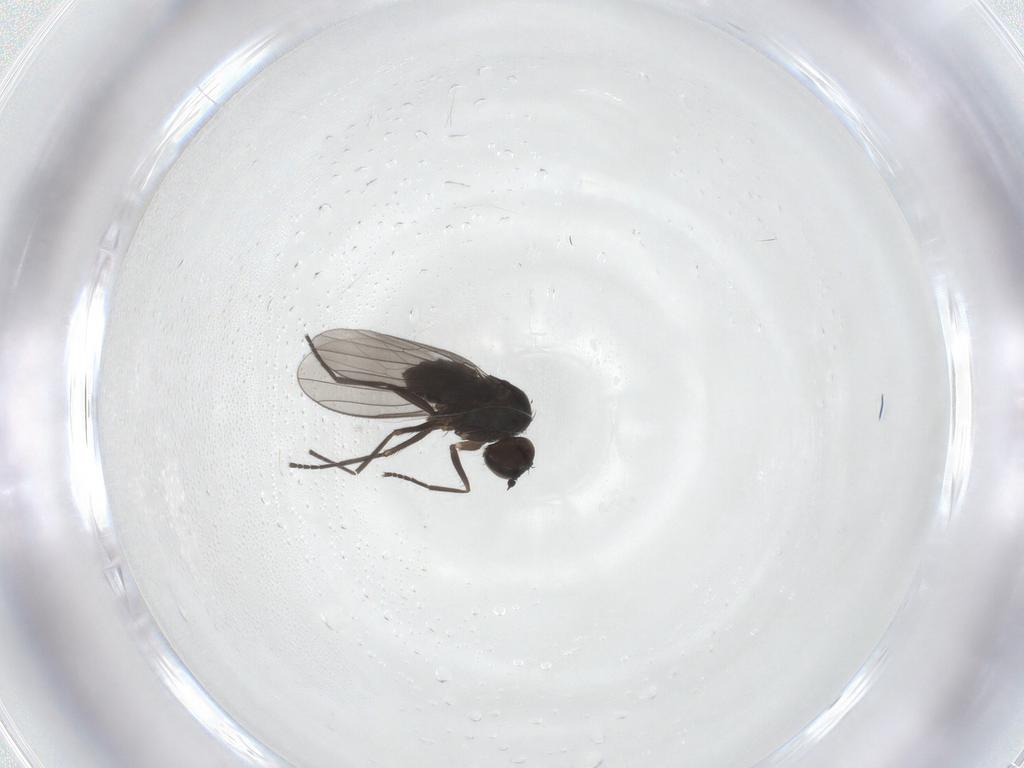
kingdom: Animalia
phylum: Arthropoda
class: Insecta
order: Diptera
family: Dolichopodidae
